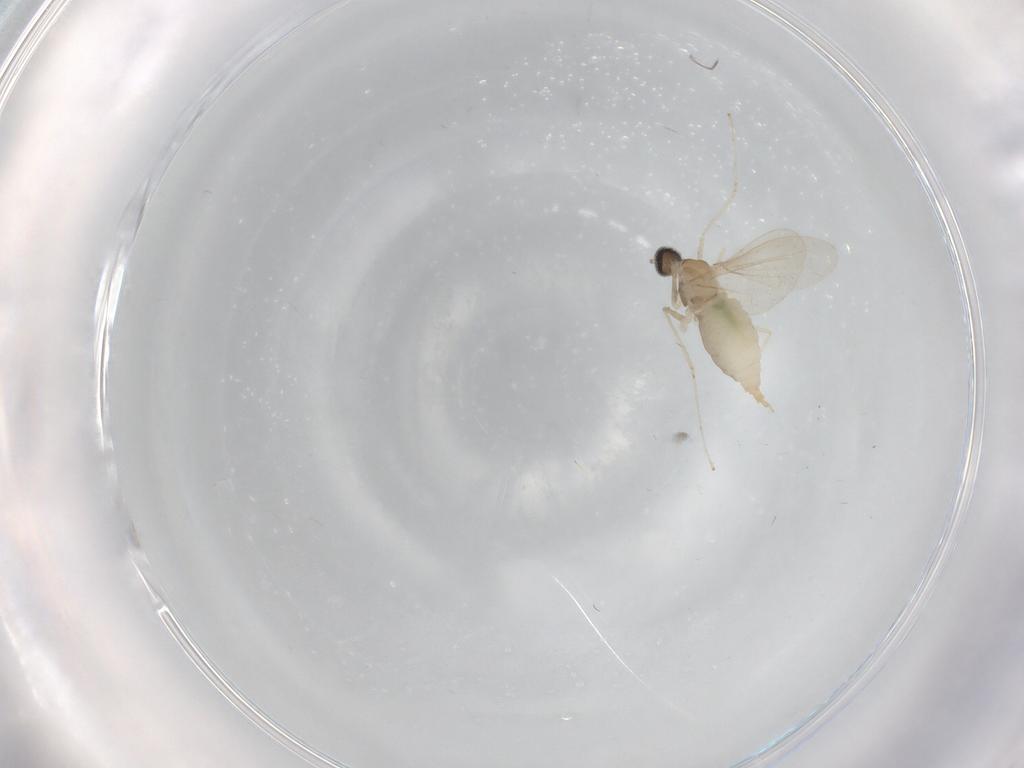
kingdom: Animalia
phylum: Arthropoda
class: Insecta
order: Diptera
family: Cecidomyiidae
